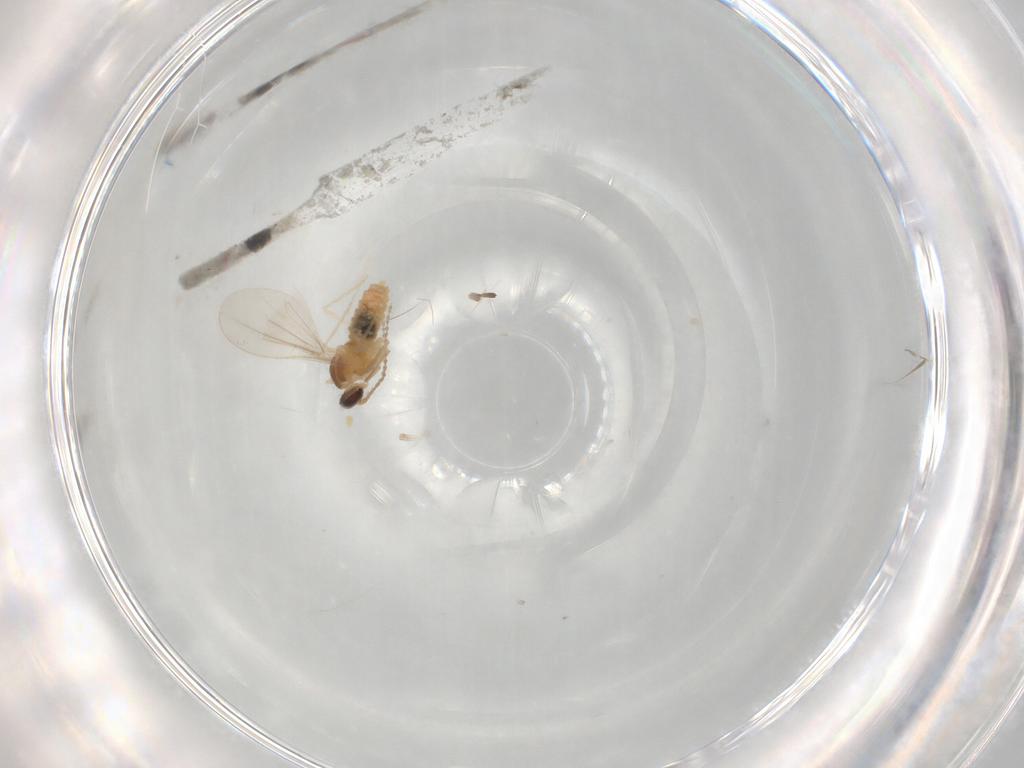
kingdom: Animalia
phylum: Arthropoda
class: Insecta
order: Diptera
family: Cecidomyiidae
